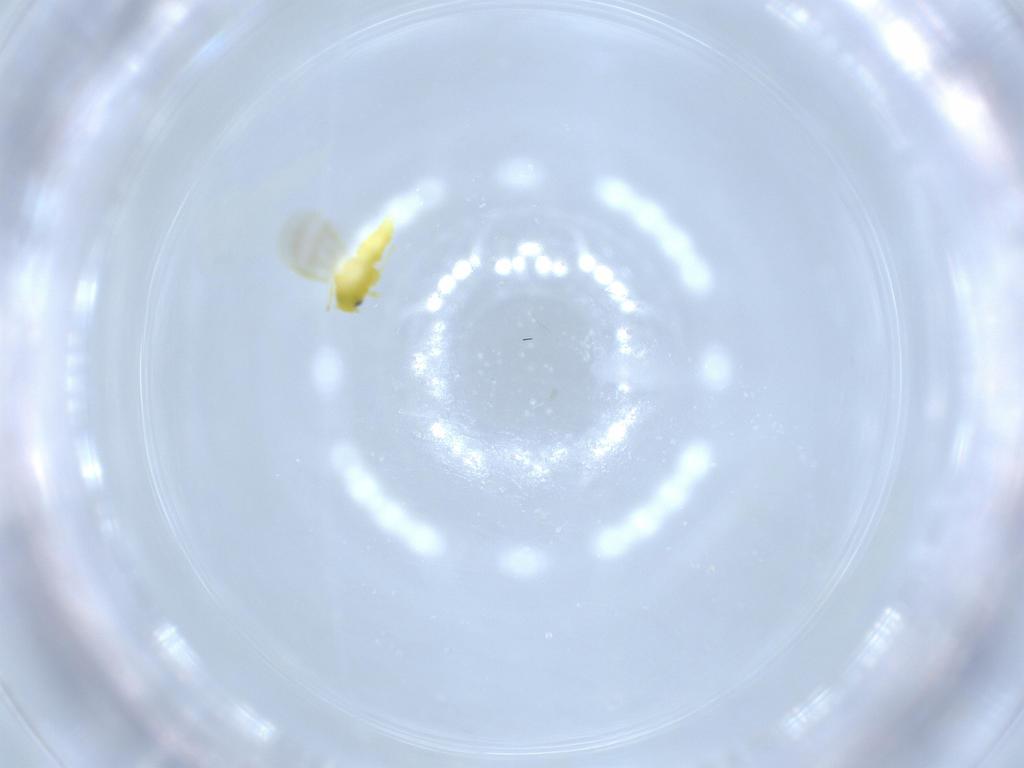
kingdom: Animalia
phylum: Arthropoda
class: Insecta
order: Hemiptera
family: Aleyrodidae
